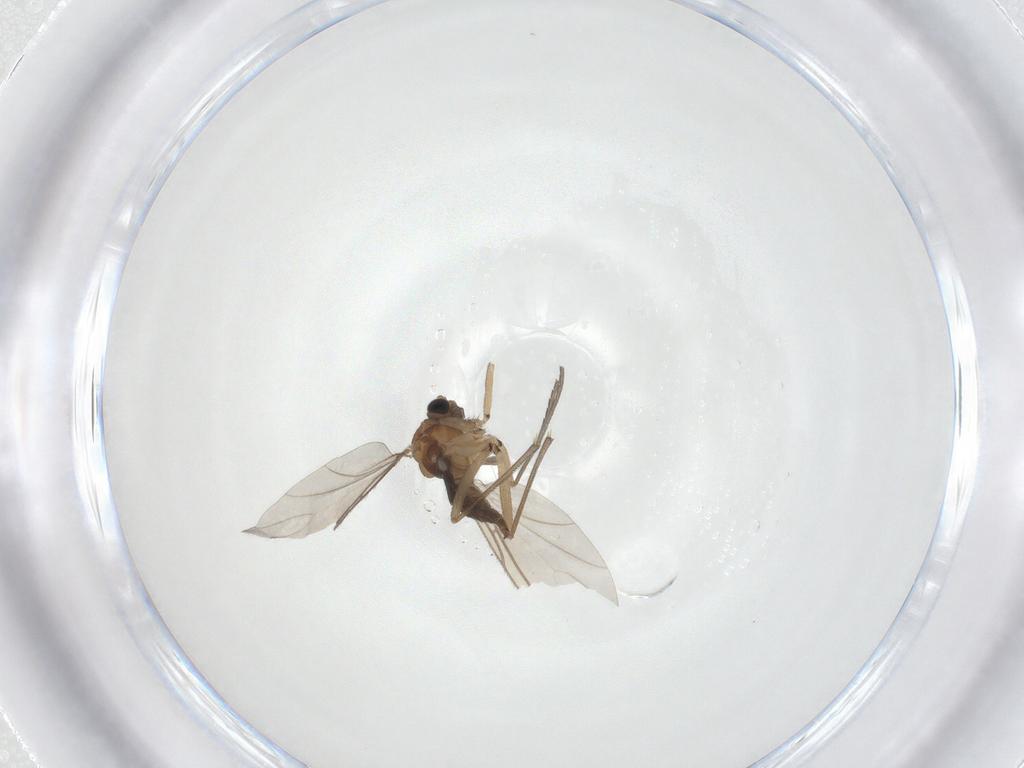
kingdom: Animalia
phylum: Arthropoda
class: Insecta
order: Diptera
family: Sciaridae
